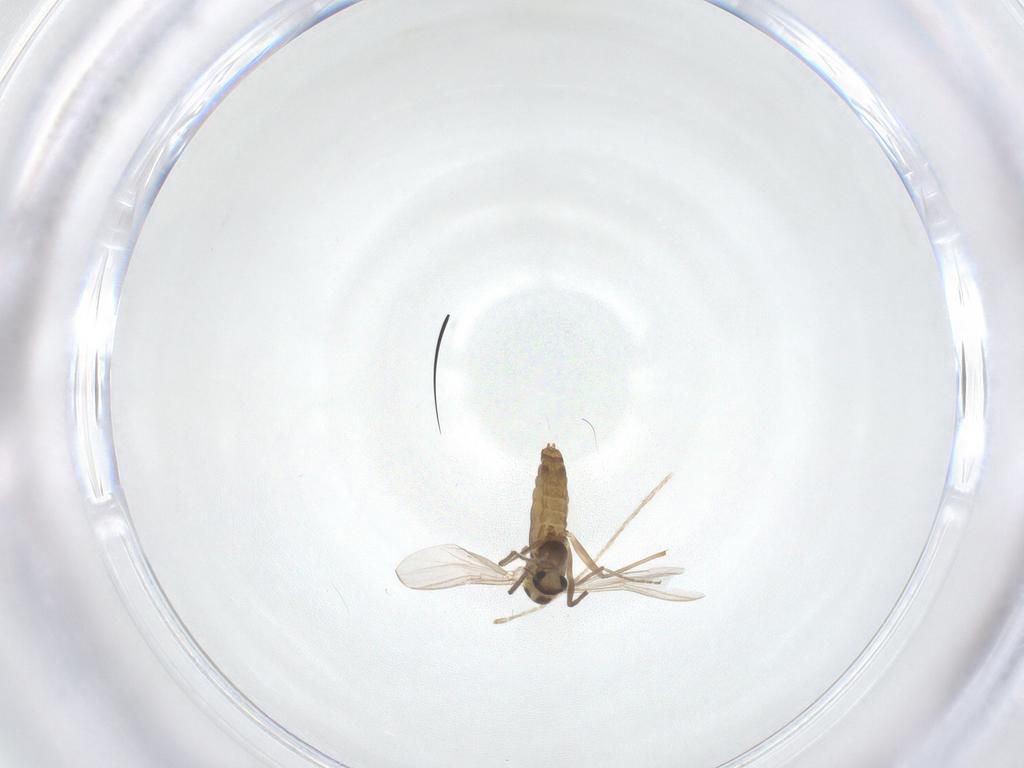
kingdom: Animalia
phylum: Arthropoda
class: Insecta
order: Diptera
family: Chironomidae
